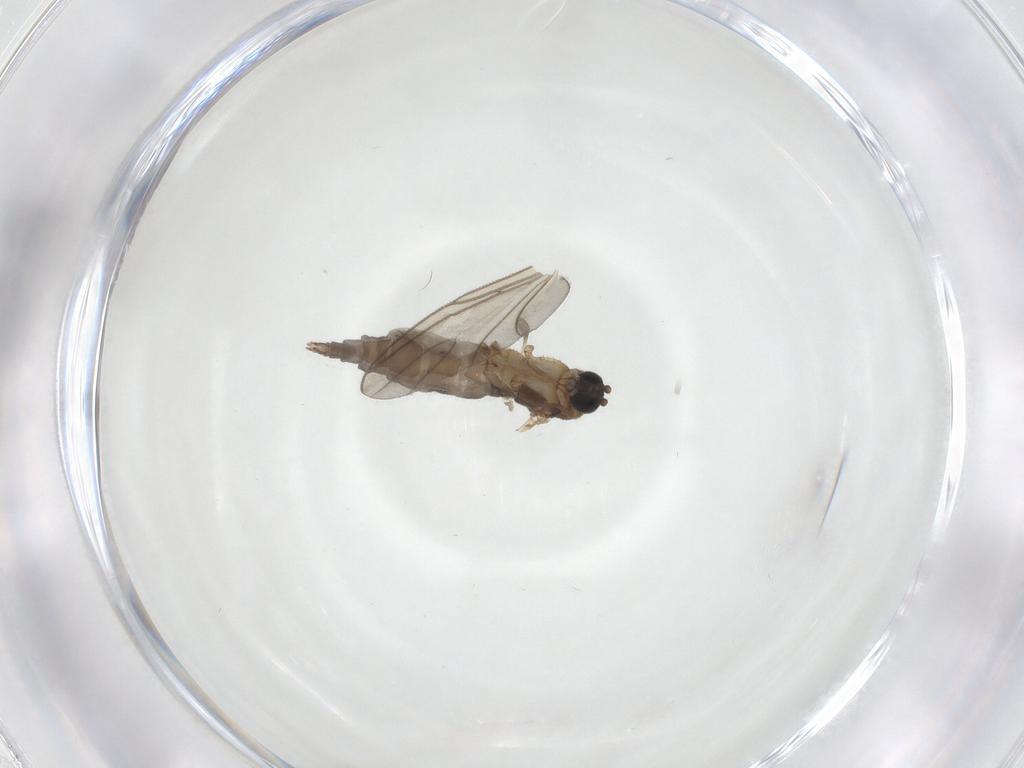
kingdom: Animalia
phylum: Arthropoda
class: Insecta
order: Diptera
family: Sciaridae
